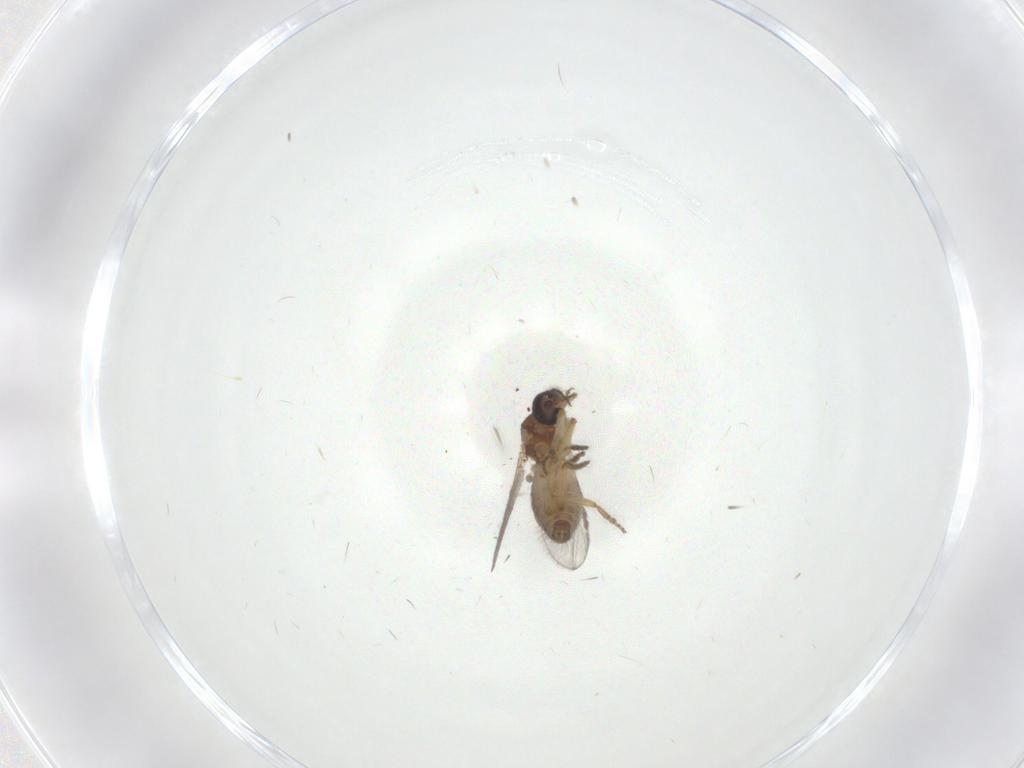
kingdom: Animalia
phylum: Arthropoda
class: Insecta
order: Diptera
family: Ceratopogonidae
